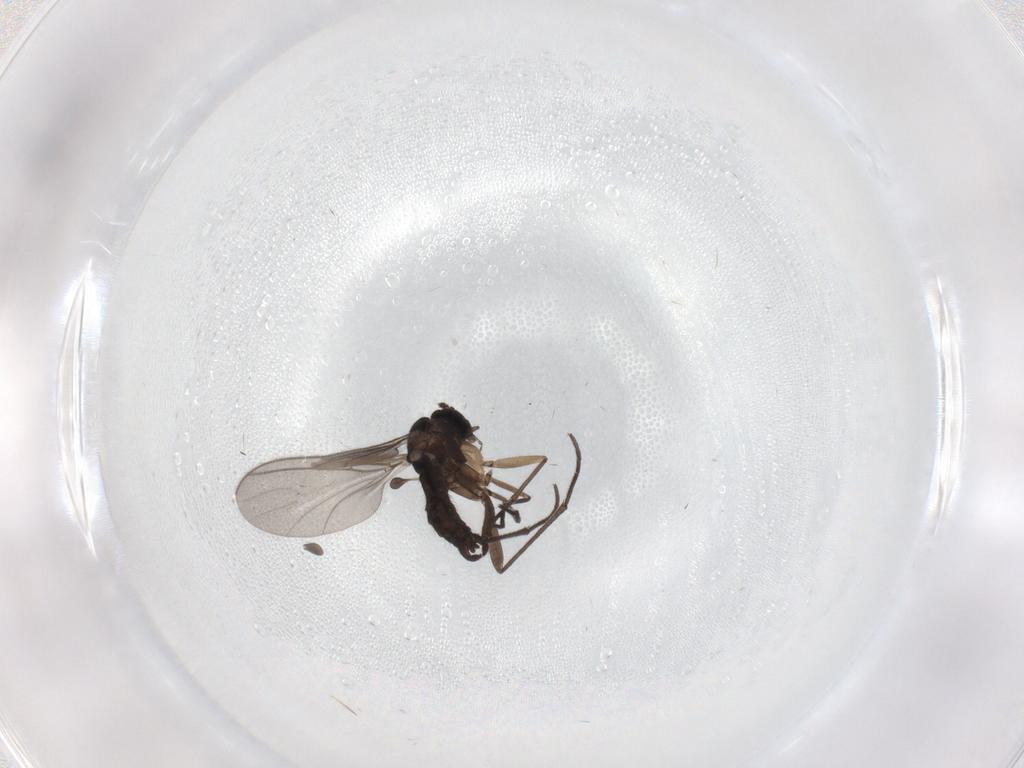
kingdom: Animalia
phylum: Arthropoda
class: Insecta
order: Diptera
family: Sciaridae
